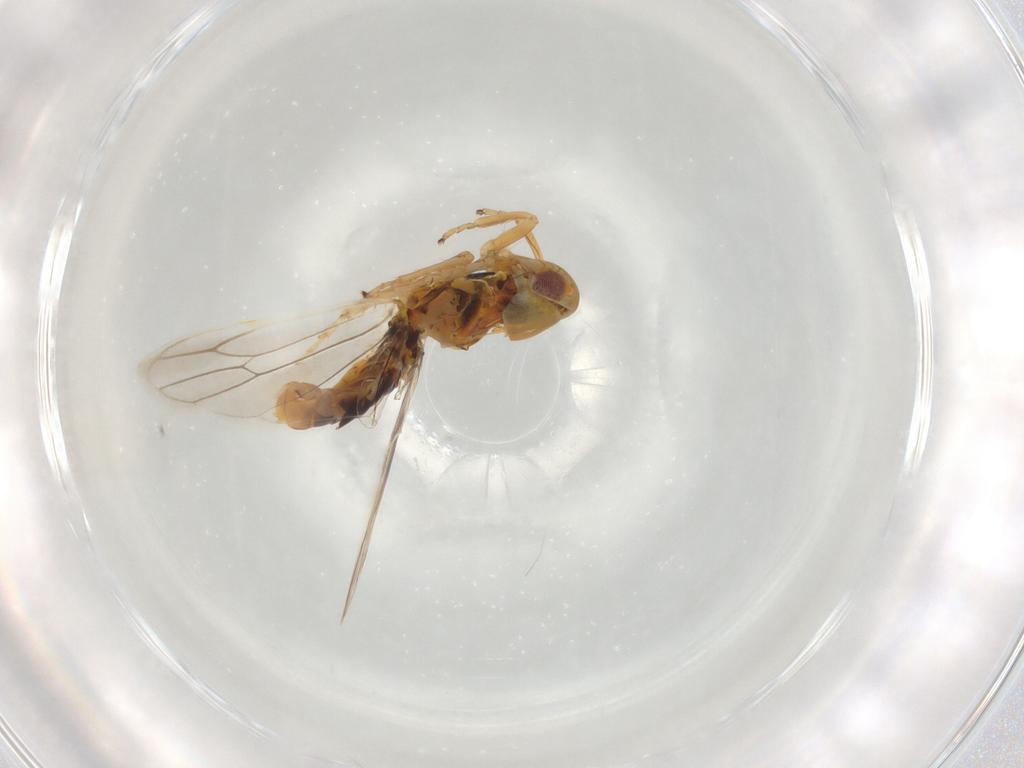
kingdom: Animalia
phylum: Arthropoda
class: Insecta
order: Hemiptera
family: Cicadellidae
